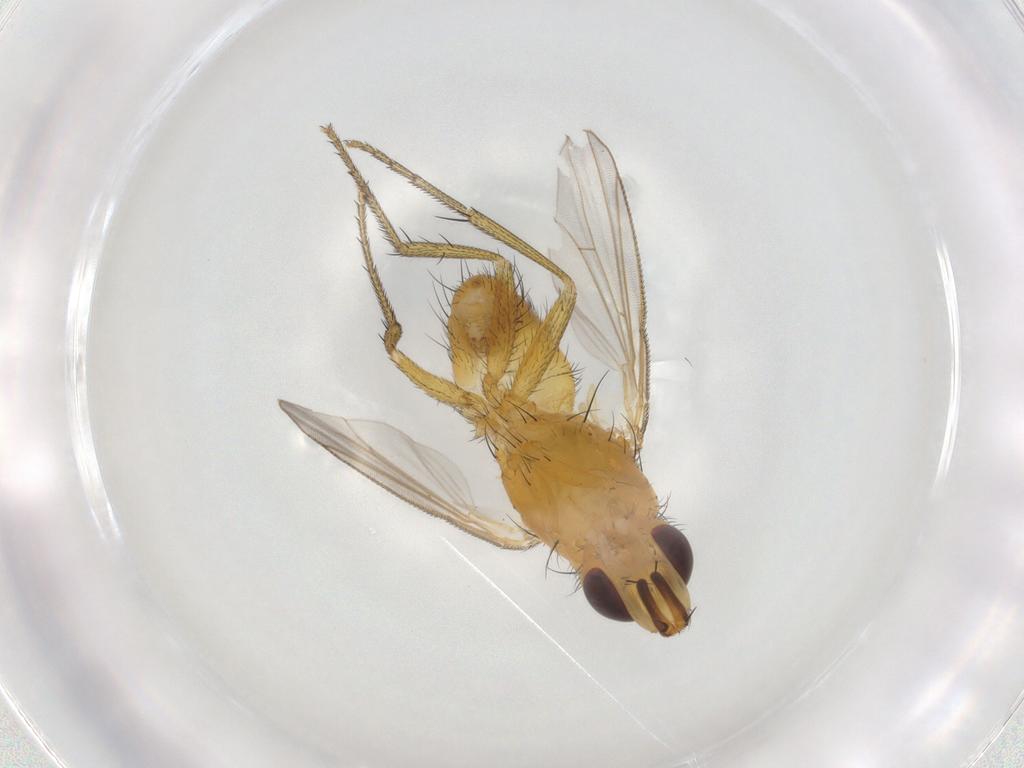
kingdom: Animalia
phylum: Arthropoda
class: Insecta
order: Diptera
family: Muscidae
